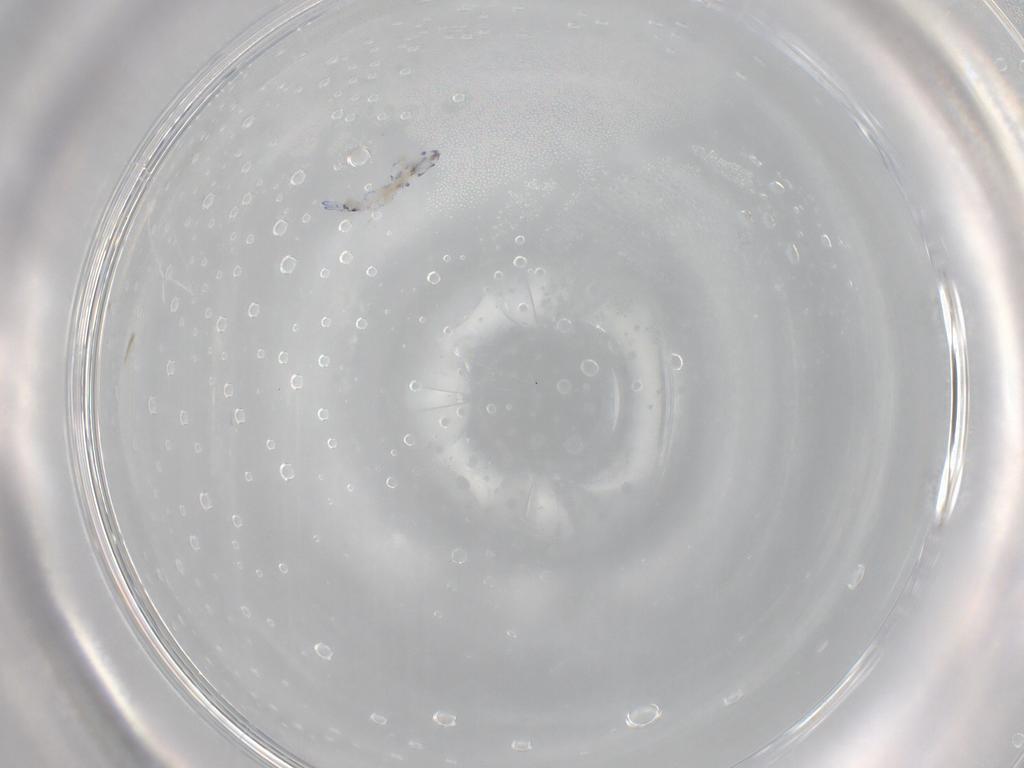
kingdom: Animalia
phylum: Arthropoda
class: Collembola
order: Entomobryomorpha
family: Entomobryidae
